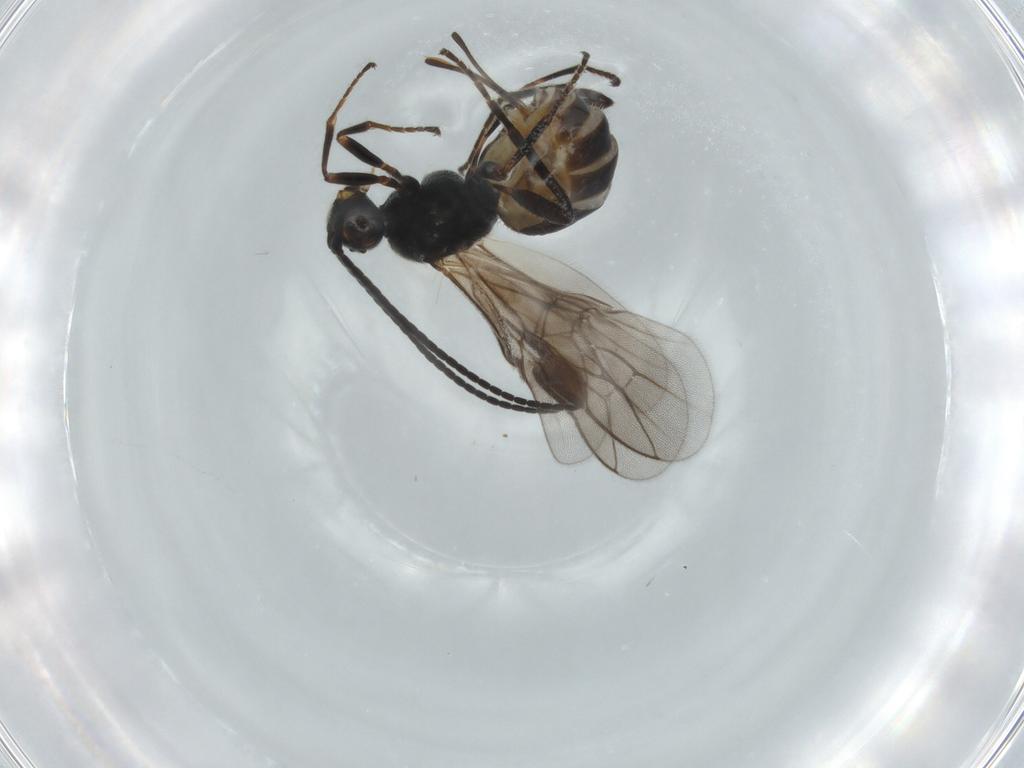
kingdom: Animalia
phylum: Arthropoda
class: Insecta
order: Hymenoptera
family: Braconidae
